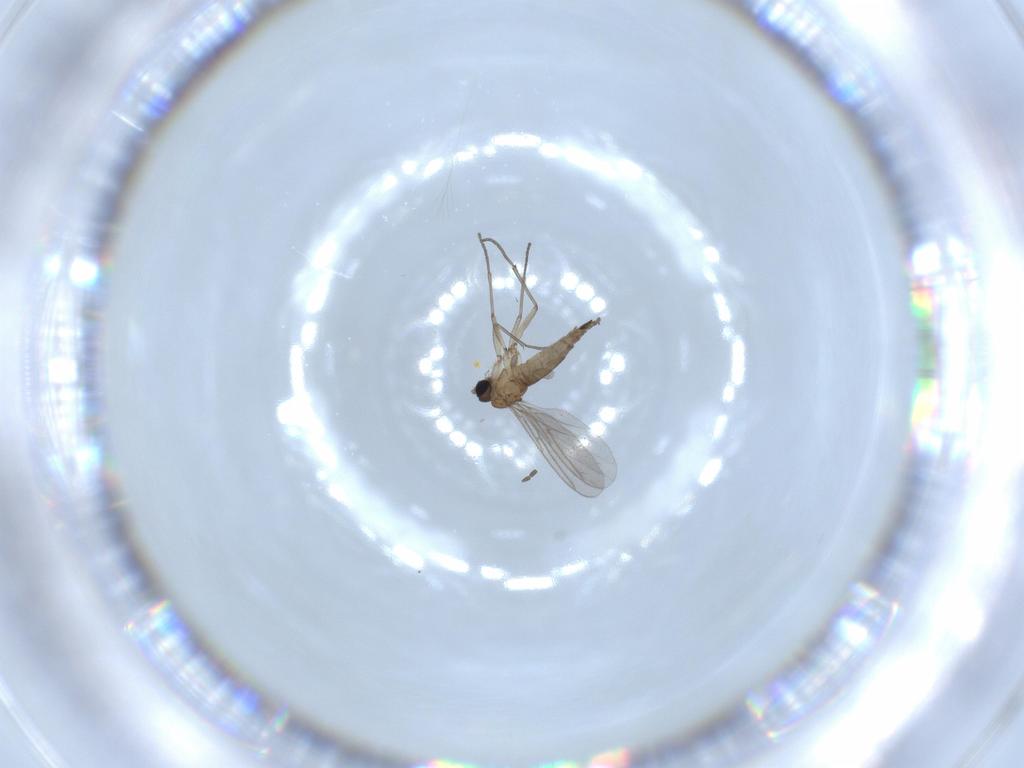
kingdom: Animalia
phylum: Arthropoda
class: Insecta
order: Diptera
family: Sciaridae
